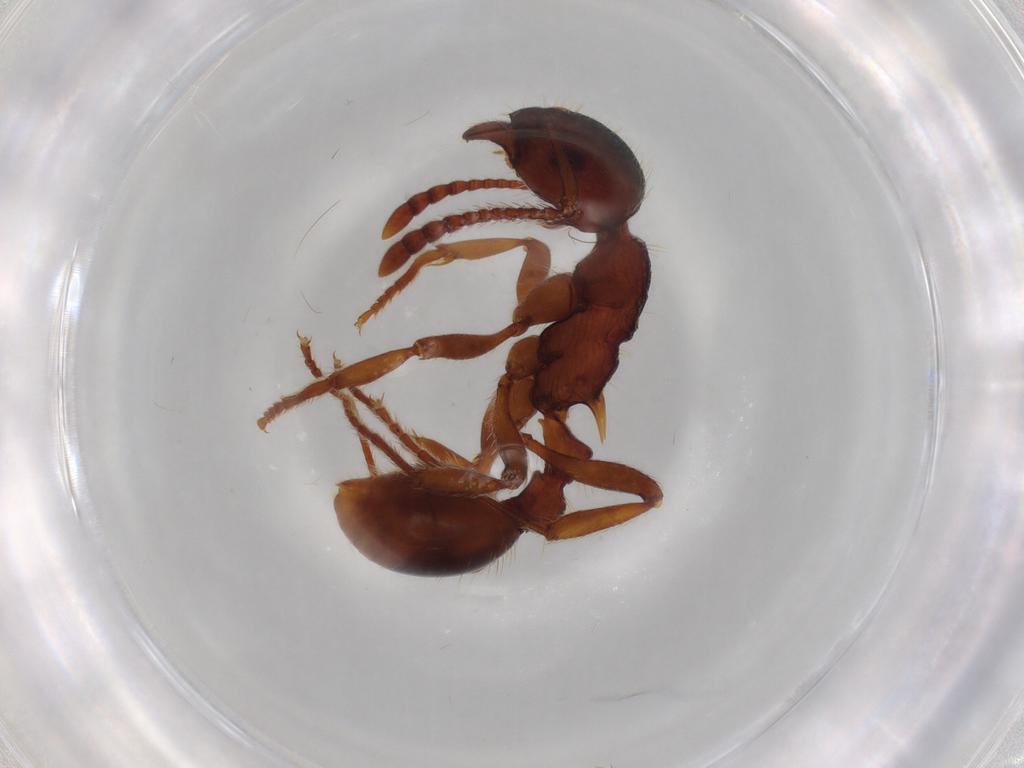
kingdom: Animalia
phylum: Arthropoda
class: Insecta
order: Hymenoptera
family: Formicidae
